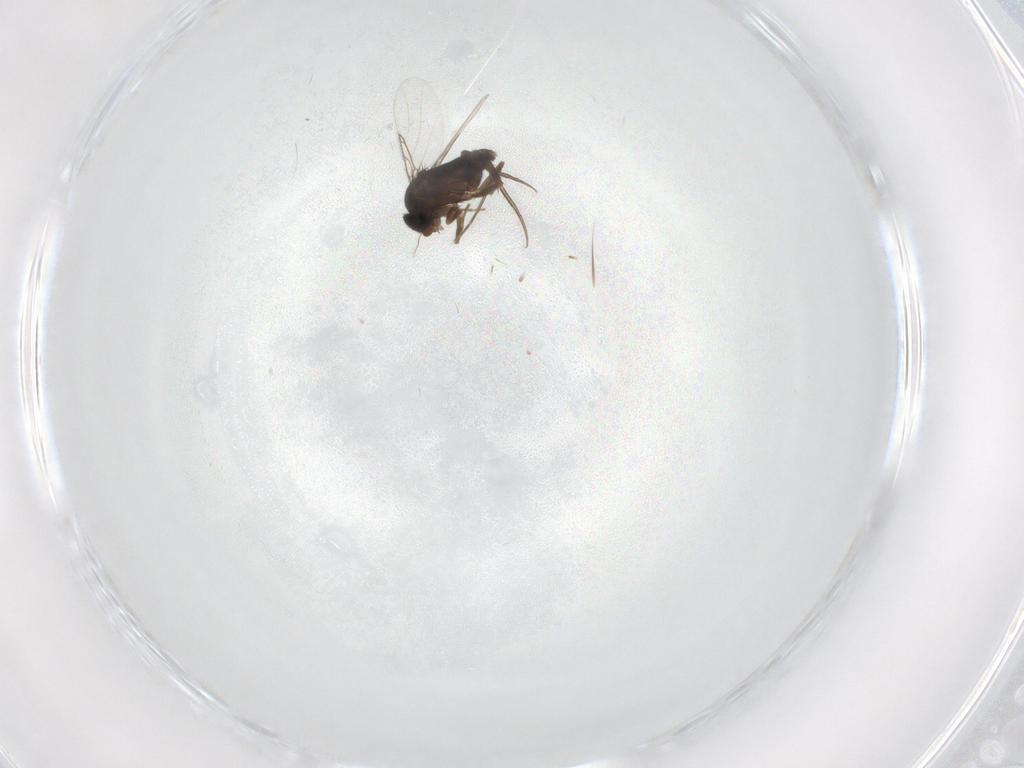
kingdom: Animalia
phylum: Arthropoda
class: Insecta
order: Diptera
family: Phoridae
